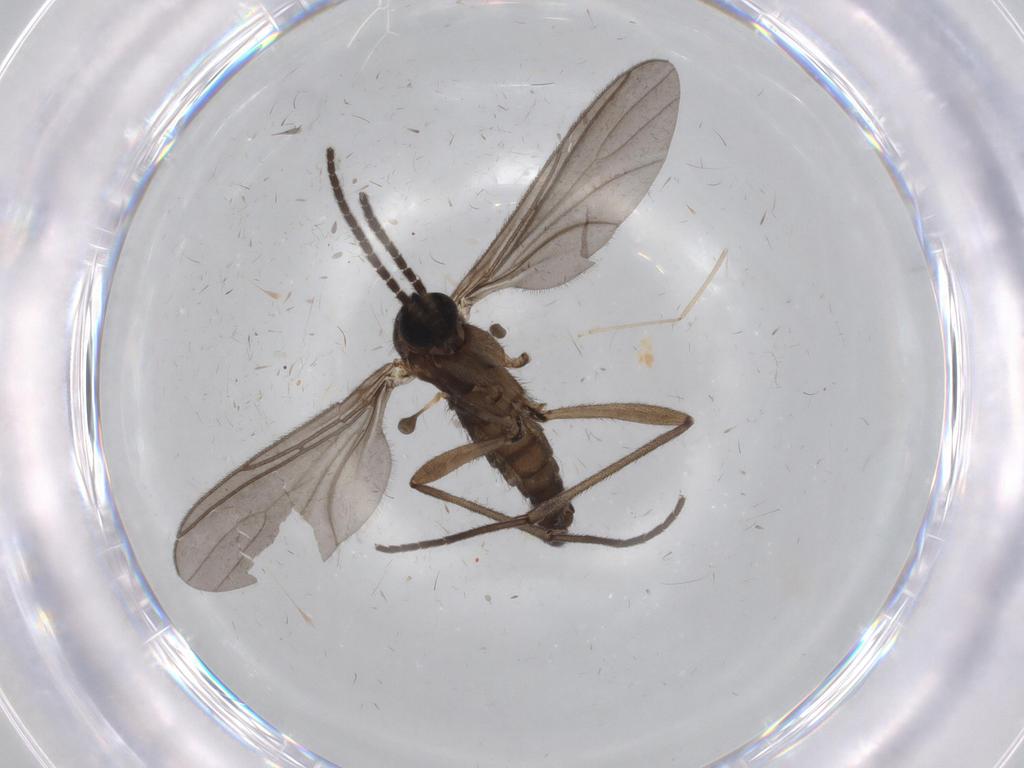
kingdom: Animalia
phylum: Arthropoda
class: Insecta
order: Diptera
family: Sciaridae
